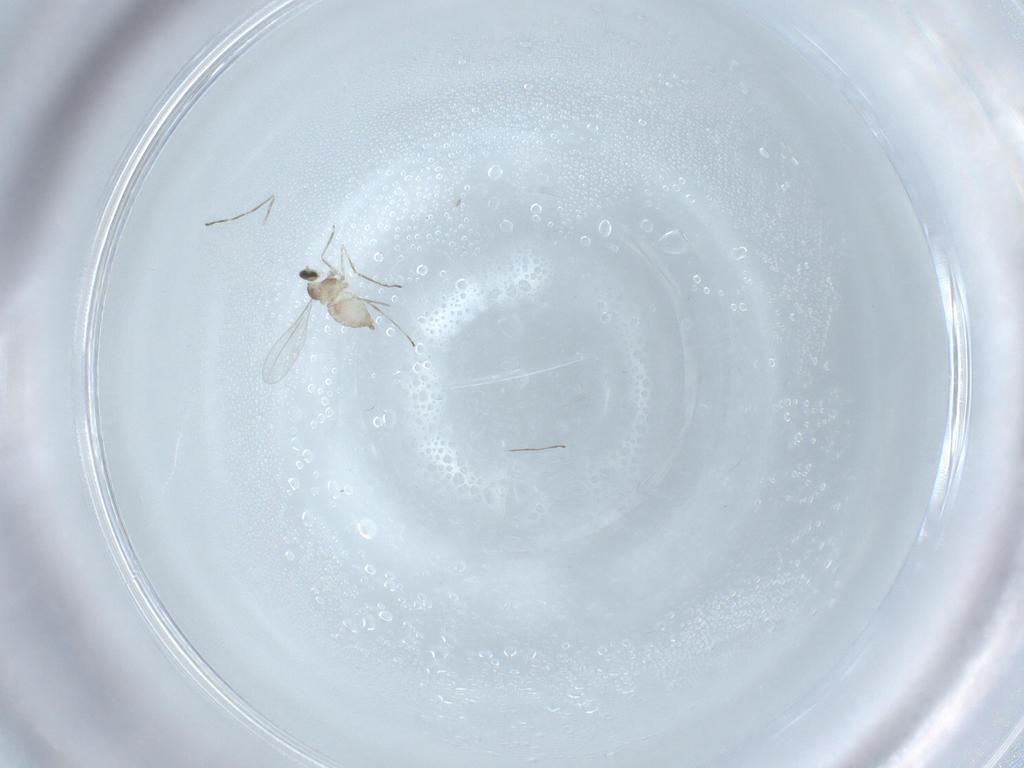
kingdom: Animalia
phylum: Arthropoda
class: Insecta
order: Diptera
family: Cecidomyiidae
